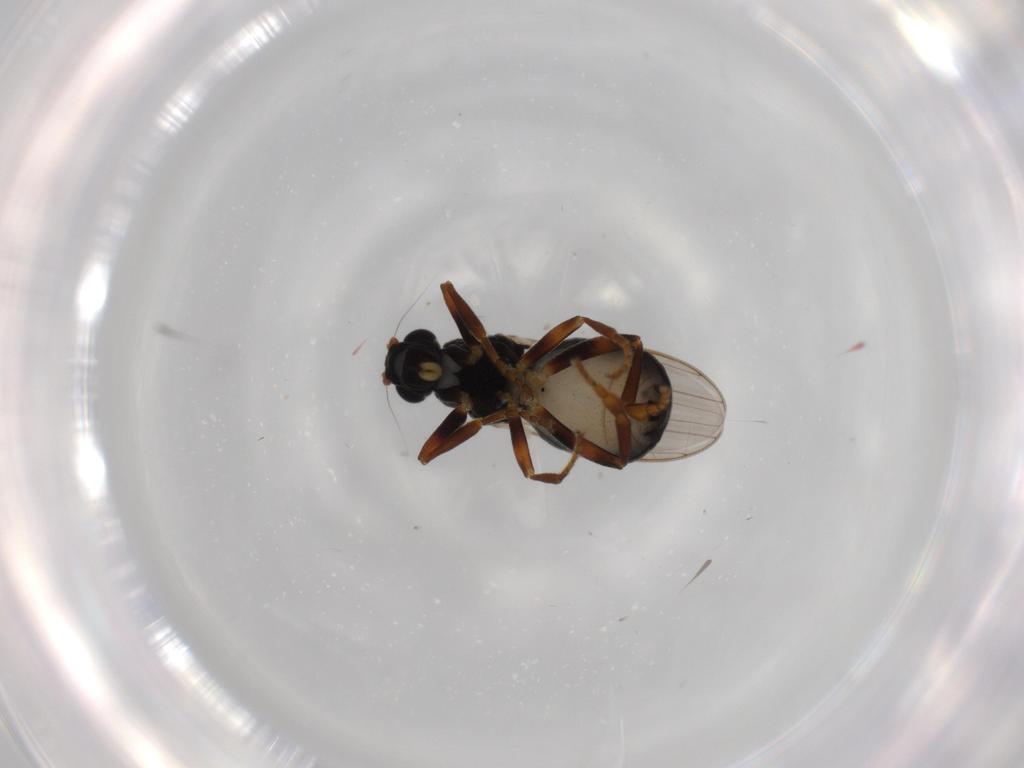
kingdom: Animalia
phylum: Arthropoda
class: Insecta
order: Diptera
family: Sphaeroceridae
